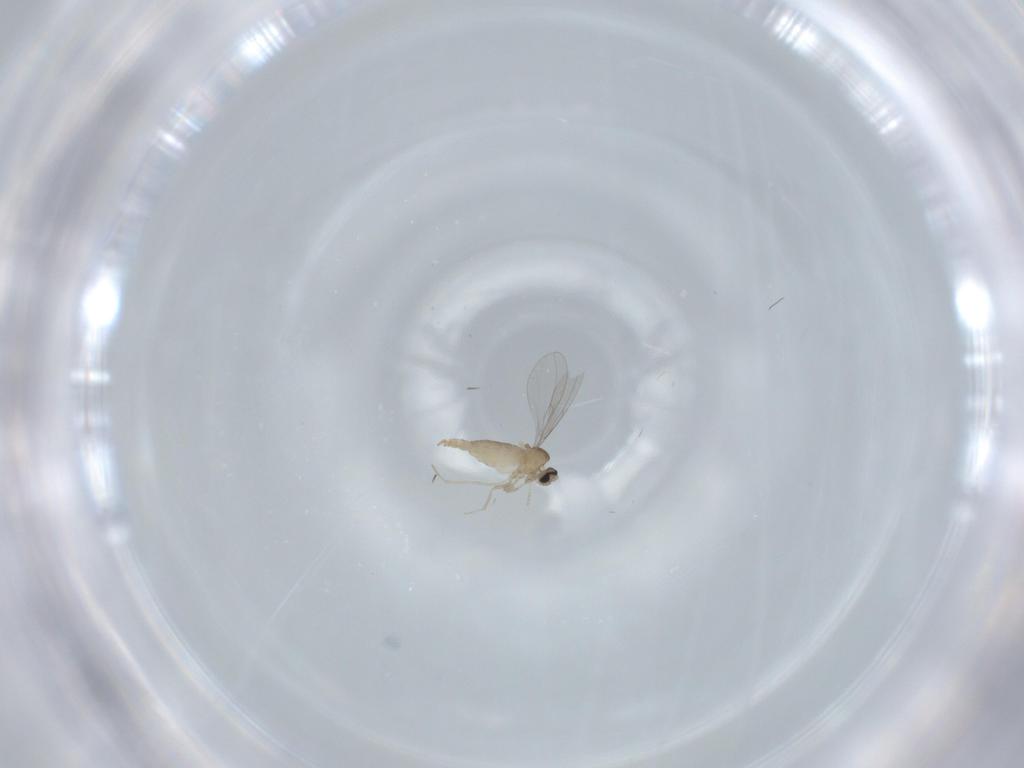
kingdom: Animalia
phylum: Arthropoda
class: Insecta
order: Diptera
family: Cecidomyiidae
